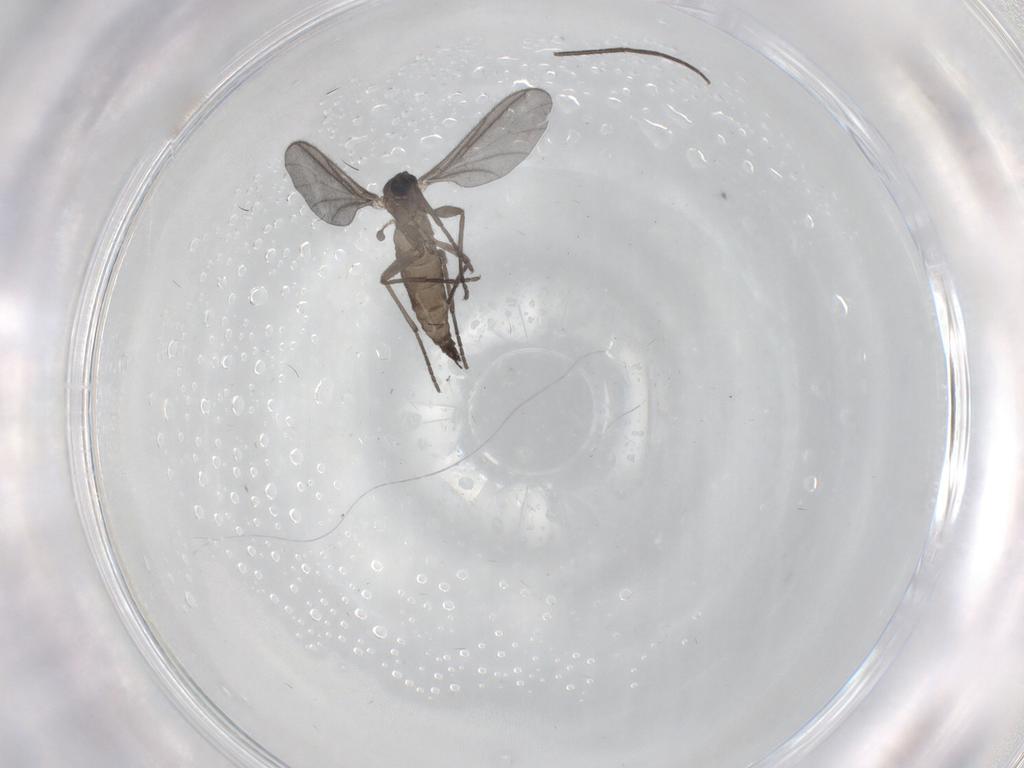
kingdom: Animalia
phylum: Arthropoda
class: Insecta
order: Diptera
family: Sciaridae
